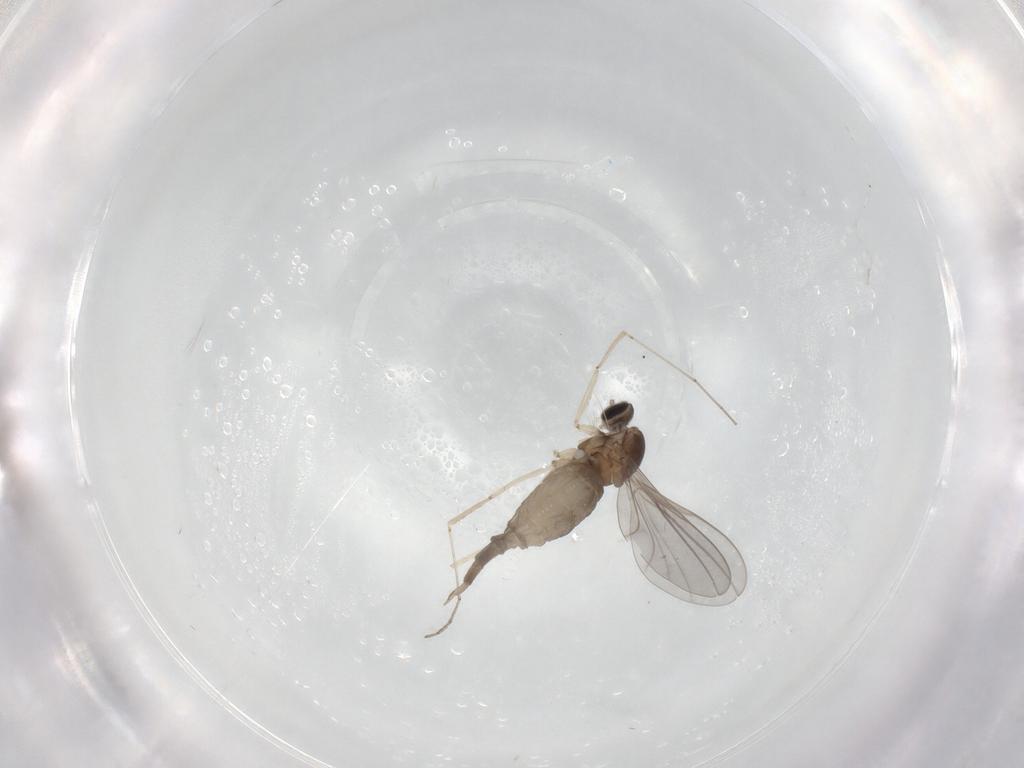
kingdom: Animalia
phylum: Arthropoda
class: Insecta
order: Diptera
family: Cecidomyiidae
